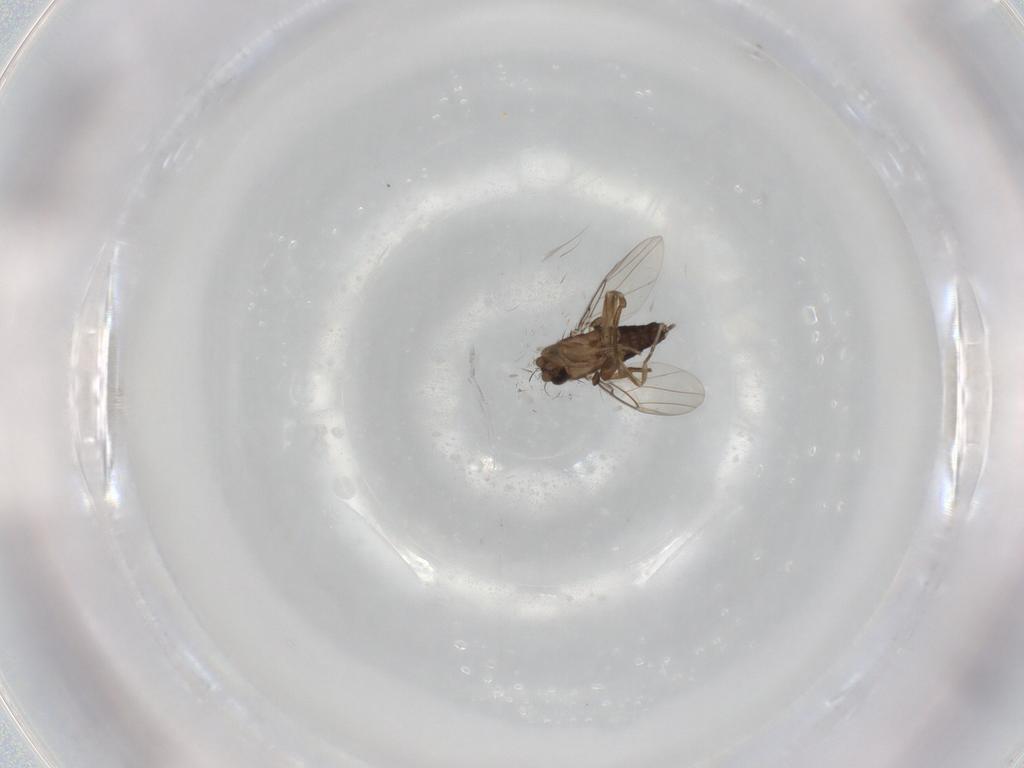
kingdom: Animalia
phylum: Arthropoda
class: Insecta
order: Diptera
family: Phoridae
